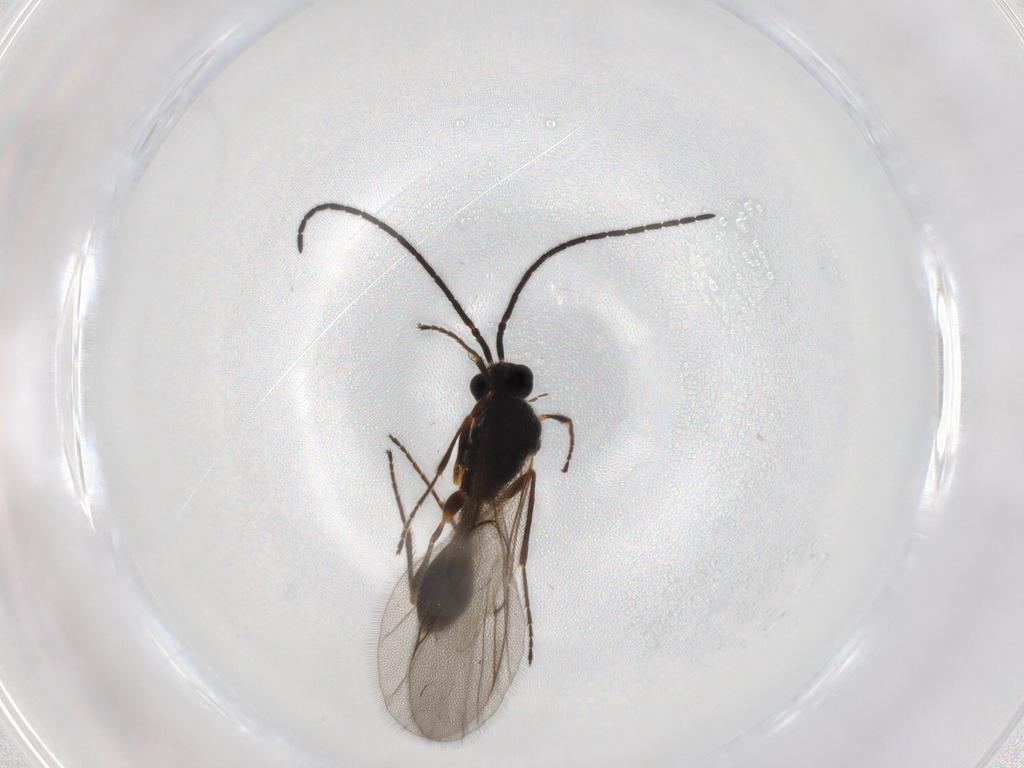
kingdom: Animalia
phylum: Arthropoda
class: Insecta
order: Hymenoptera
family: Diapriidae
